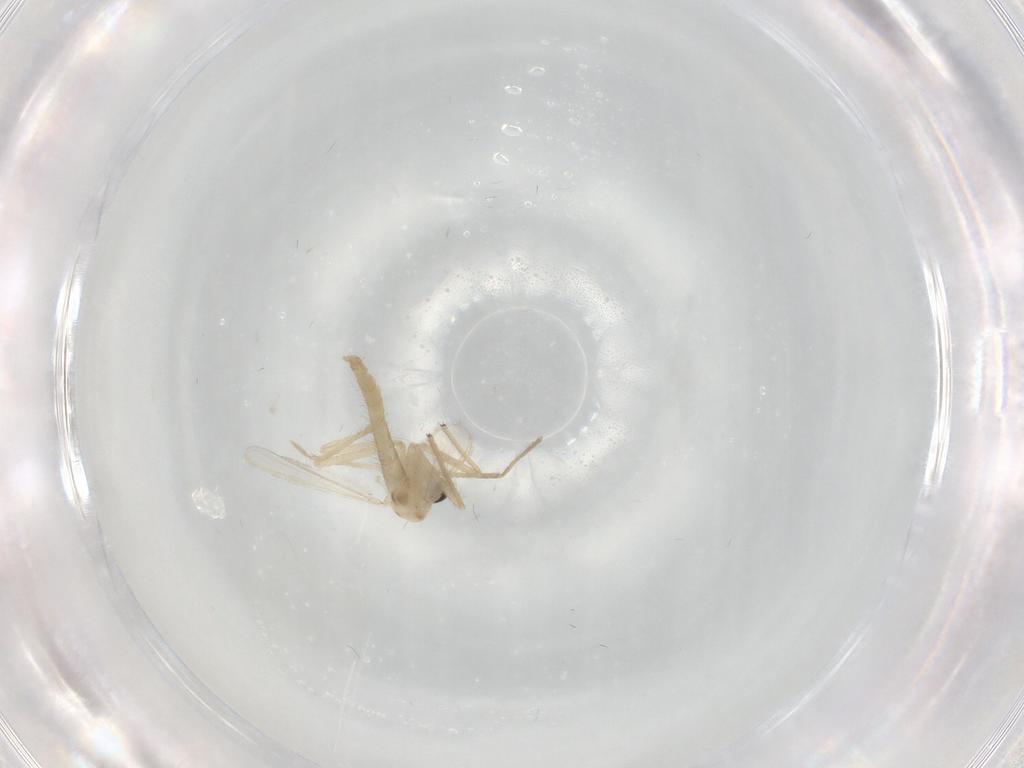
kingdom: Animalia
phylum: Arthropoda
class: Insecta
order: Diptera
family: Chironomidae
